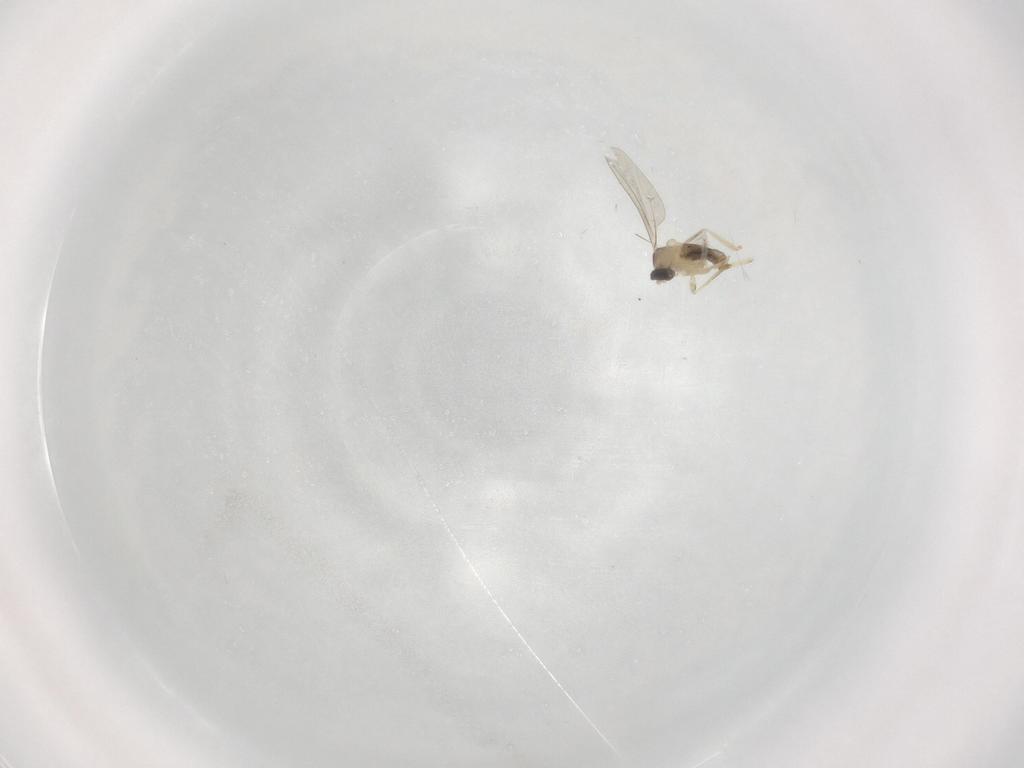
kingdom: Animalia
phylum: Arthropoda
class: Insecta
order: Diptera
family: Cecidomyiidae
